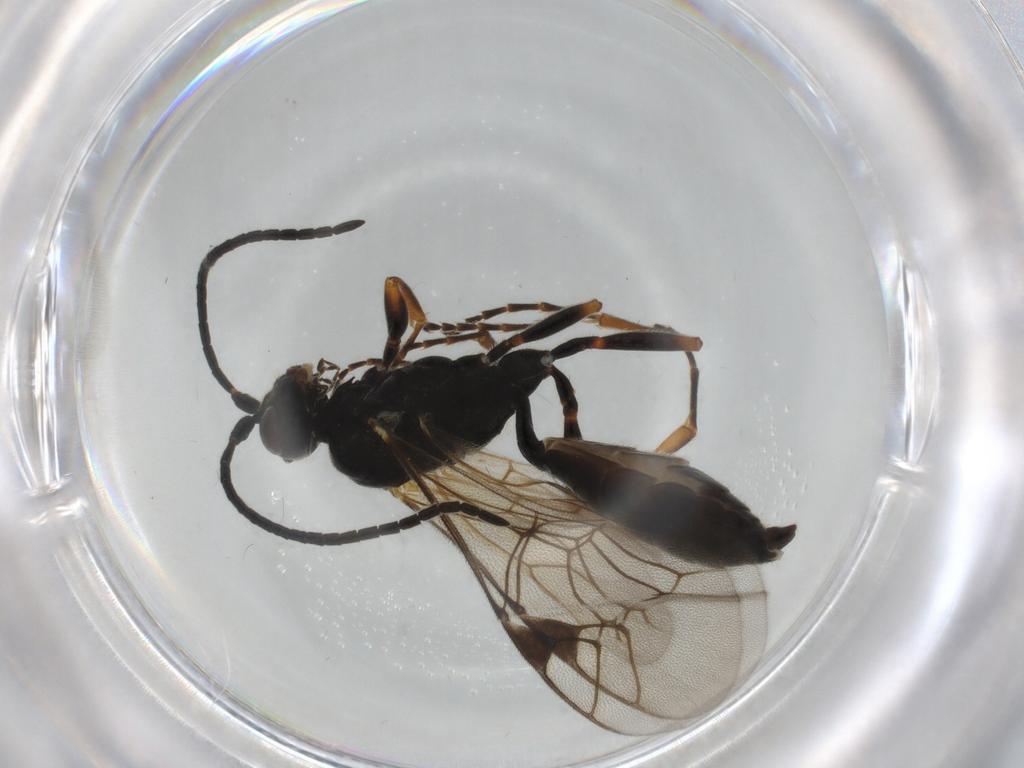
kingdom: Animalia
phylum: Arthropoda
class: Insecta
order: Hymenoptera
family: Ichneumonidae
